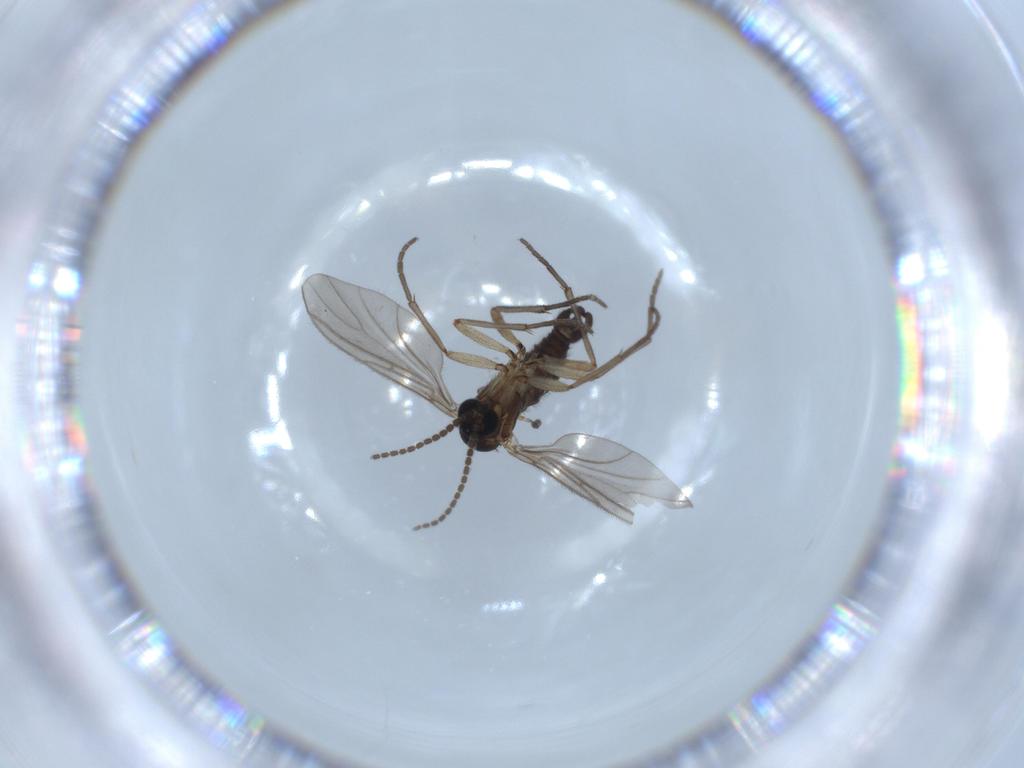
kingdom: Animalia
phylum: Arthropoda
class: Insecta
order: Diptera
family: Sciaridae
